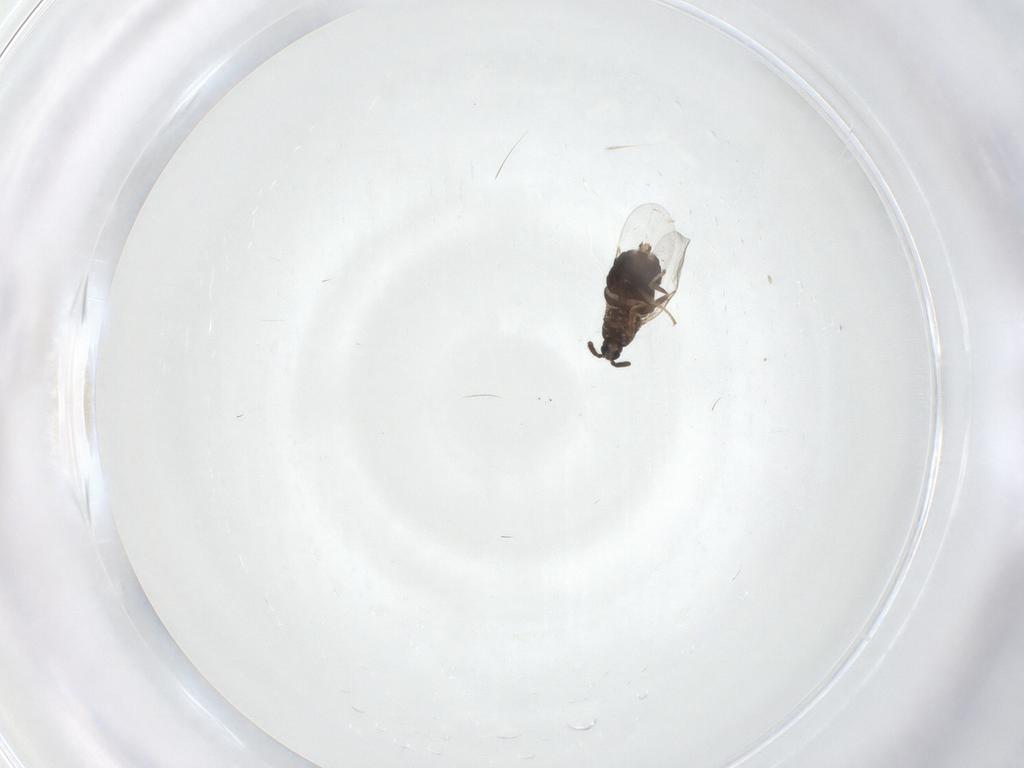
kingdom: Animalia
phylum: Arthropoda
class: Insecta
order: Diptera
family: Scatopsidae
